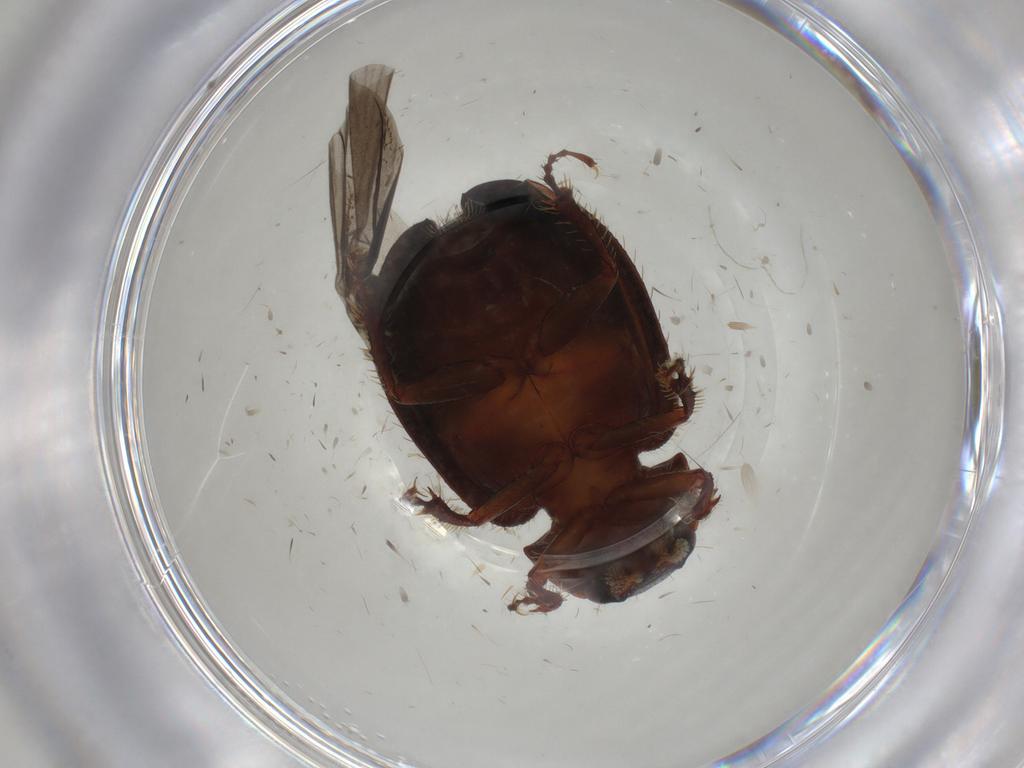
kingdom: Animalia
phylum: Arthropoda
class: Insecta
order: Coleoptera
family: Hybosoridae
